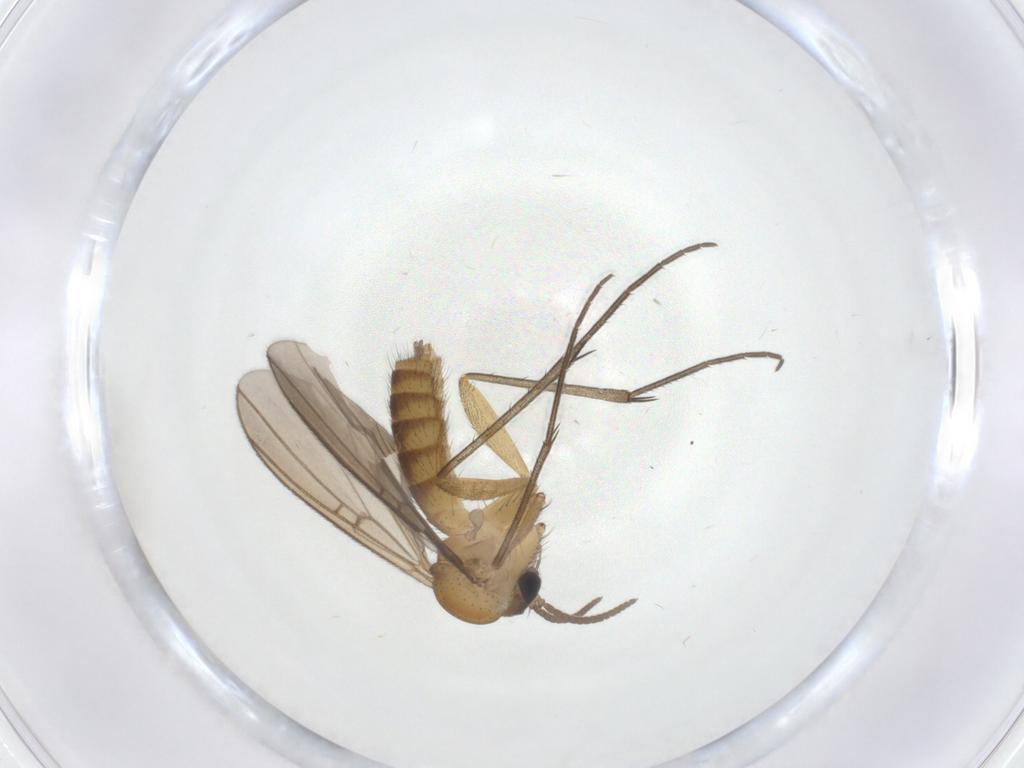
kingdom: Animalia
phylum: Arthropoda
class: Insecta
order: Diptera
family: Mycetophilidae
